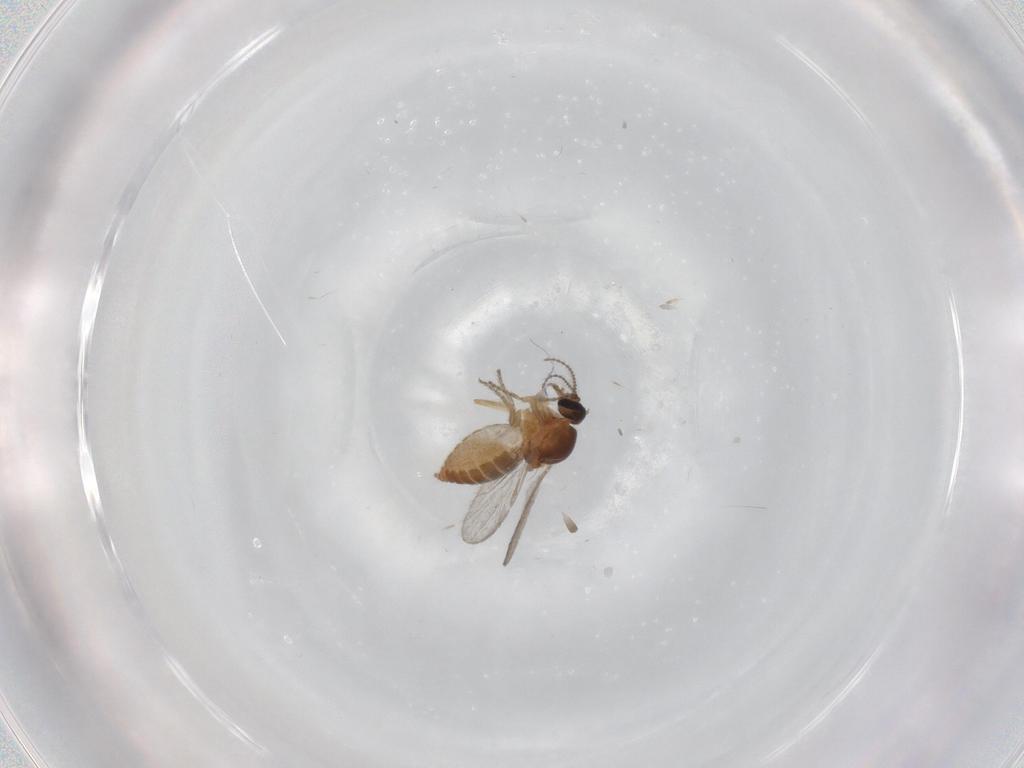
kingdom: Animalia
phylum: Arthropoda
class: Insecta
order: Diptera
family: Ceratopogonidae
